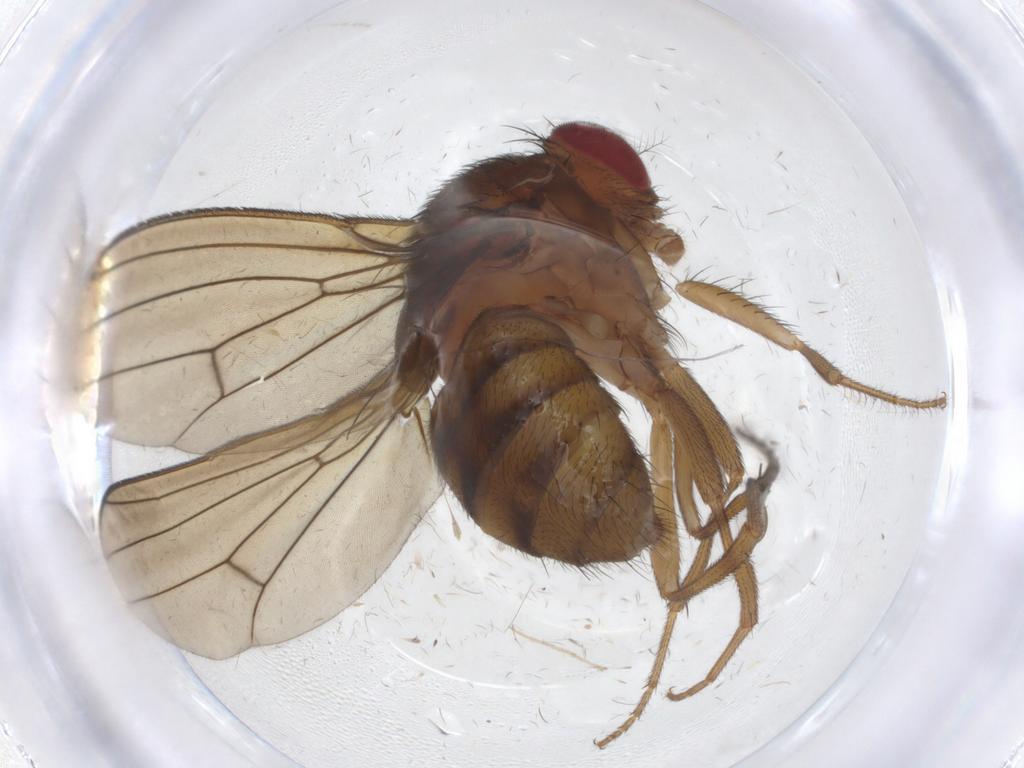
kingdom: Animalia
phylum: Arthropoda
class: Insecta
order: Diptera
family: Drosophilidae
